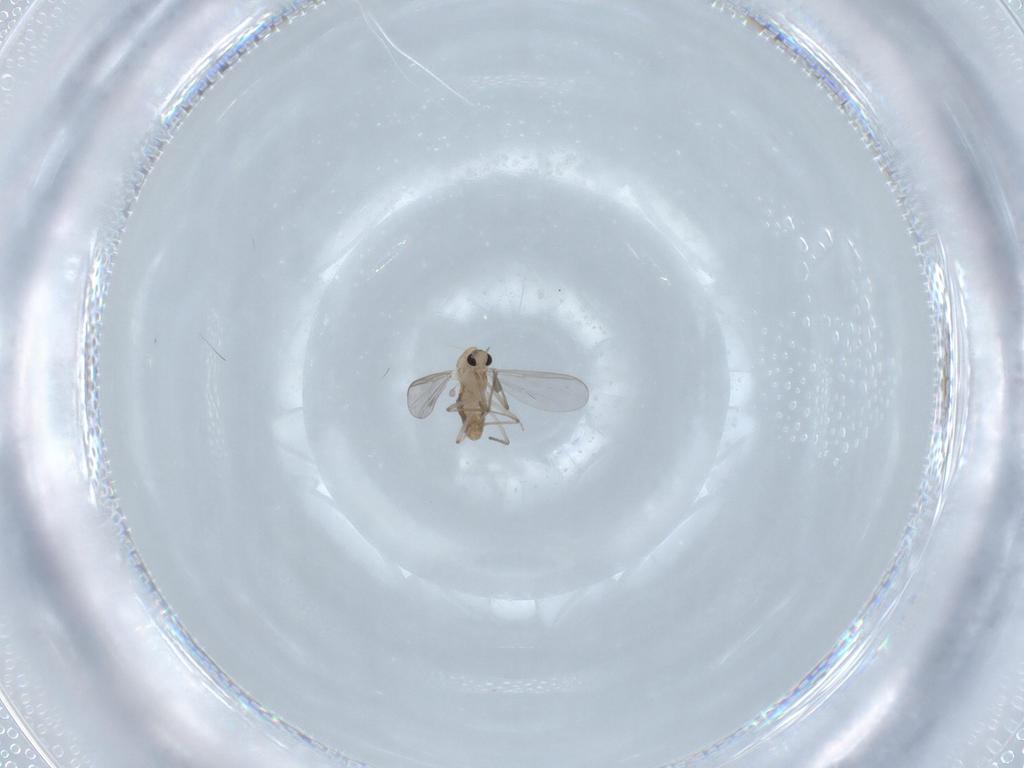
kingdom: Animalia
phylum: Arthropoda
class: Insecta
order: Diptera
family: Chironomidae
